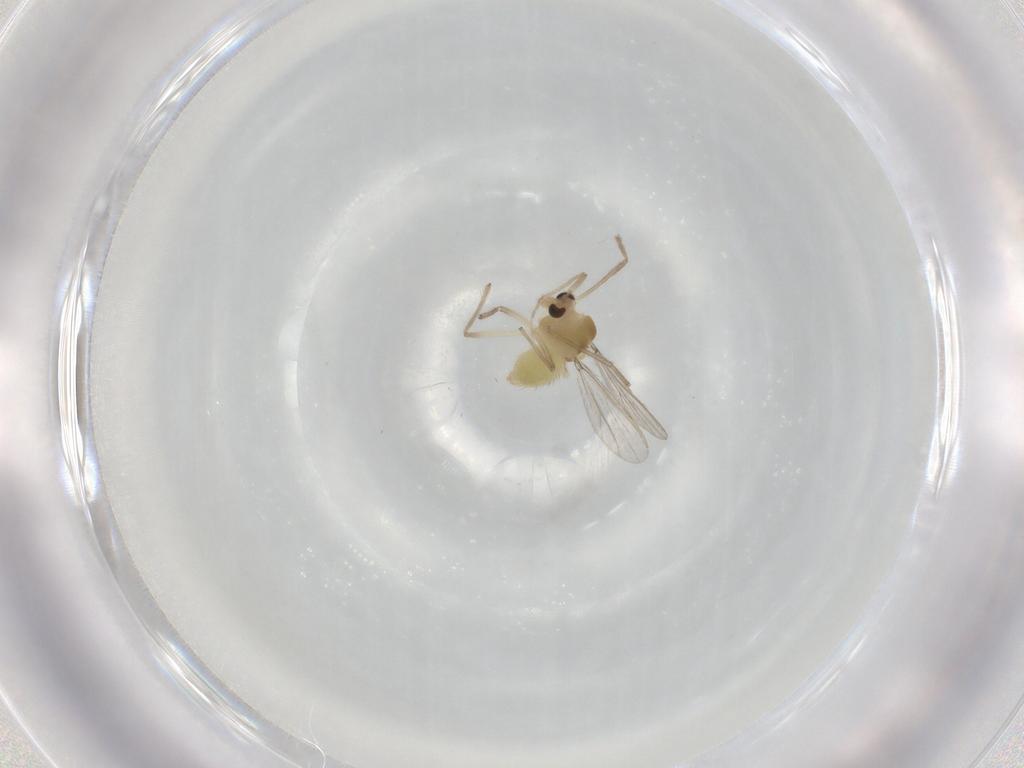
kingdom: Animalia
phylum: Arthropoda
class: Insecta
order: Diptera
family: Chironomidae
